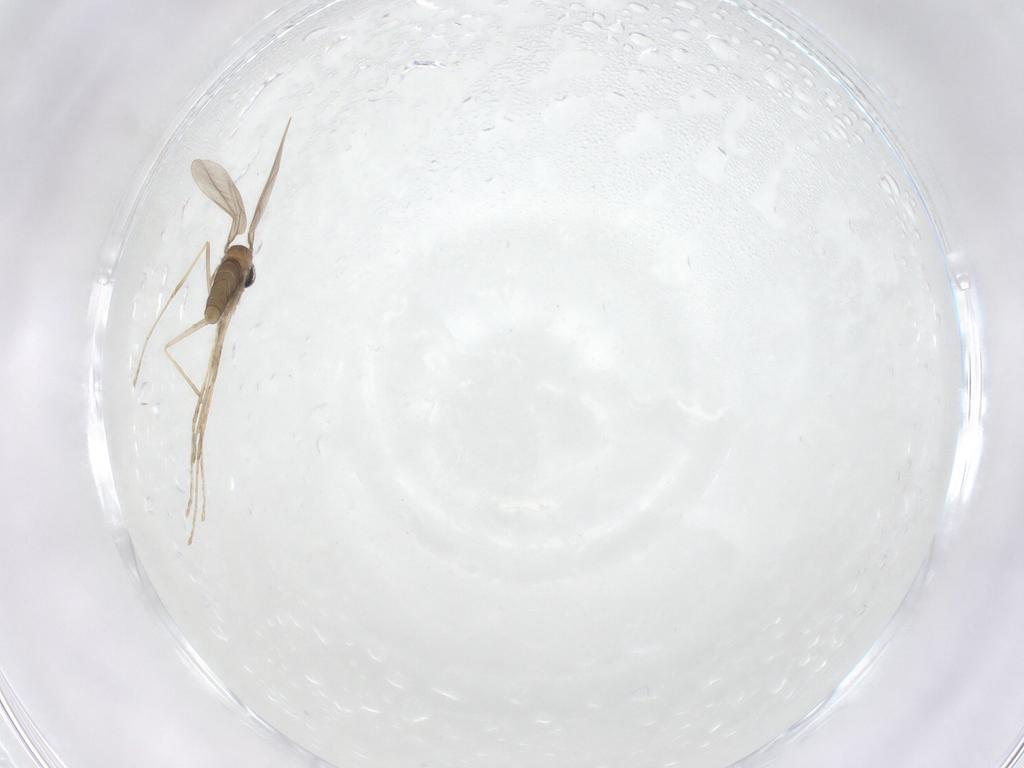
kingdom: Animalia
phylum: Arthropoda
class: Insecta
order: Diptera
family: Cecidomyiidae
